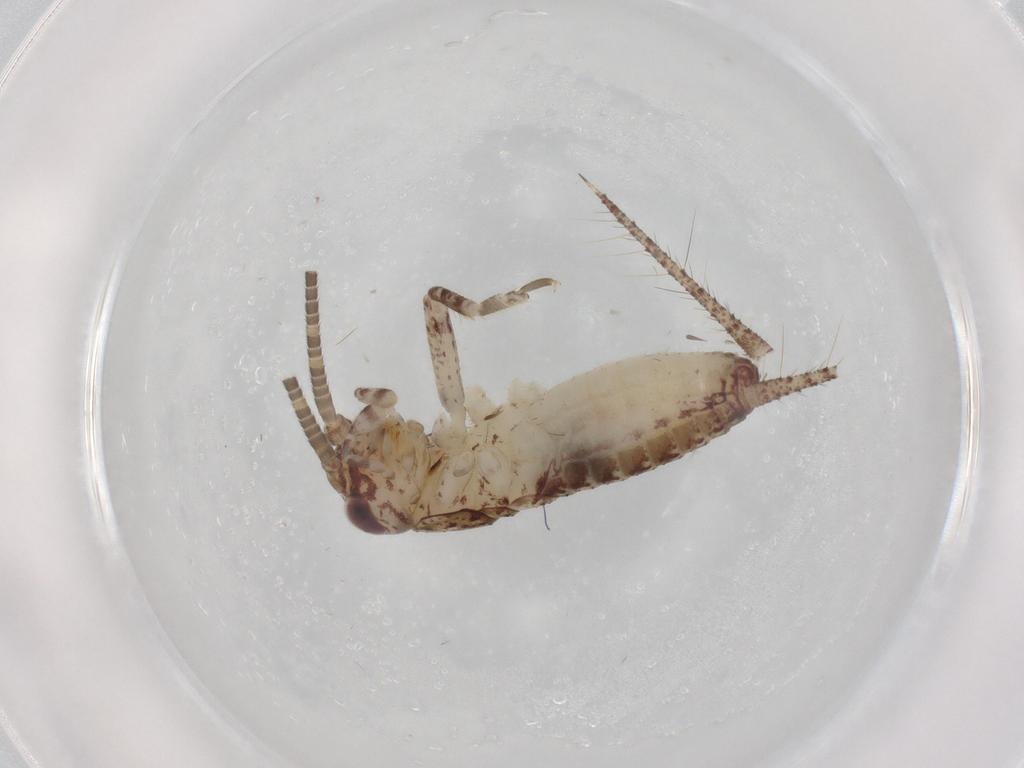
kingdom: Animalia
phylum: Arthropoda
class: Insecta
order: Orthoptera
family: Gryllidae
